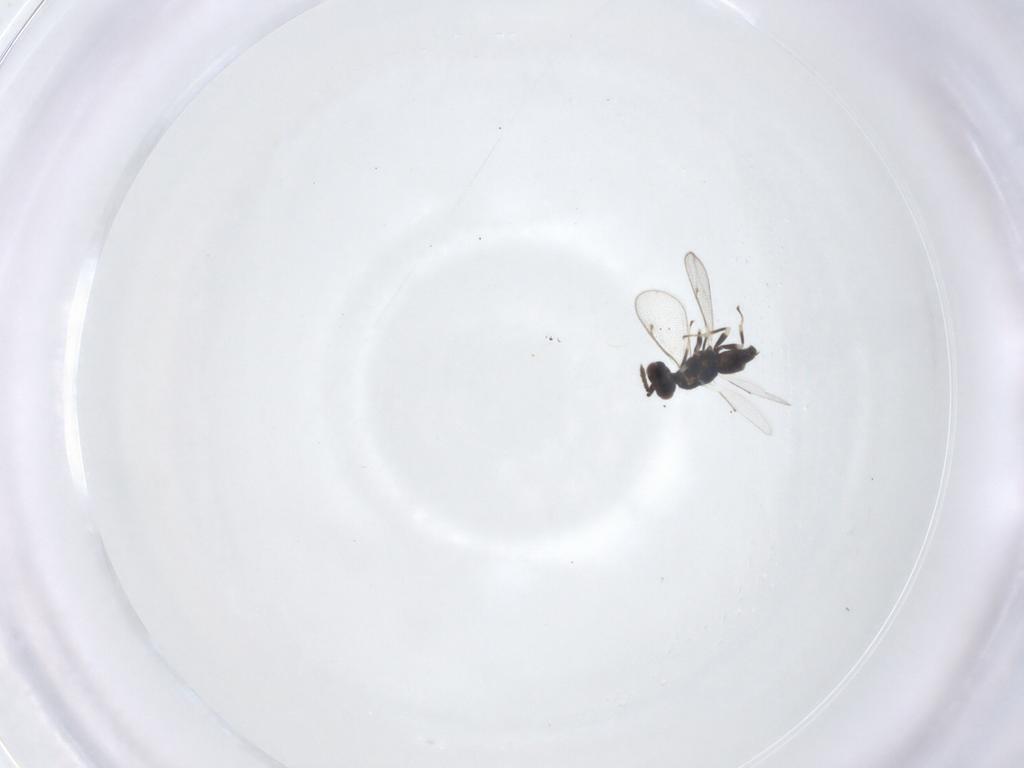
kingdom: Animalia
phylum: Arthropoda
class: Insecta
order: Hymenoptera
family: Eulophidae
